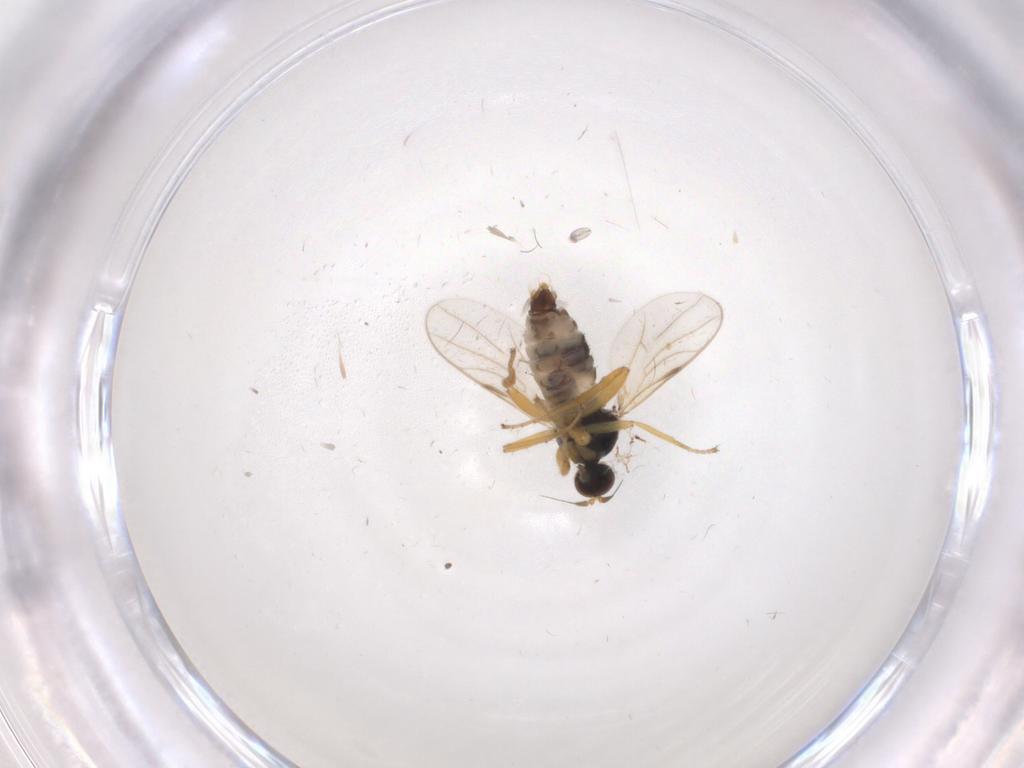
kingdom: Animalia
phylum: Arthropoda
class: Insecta
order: Diptera
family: Hybotidae
